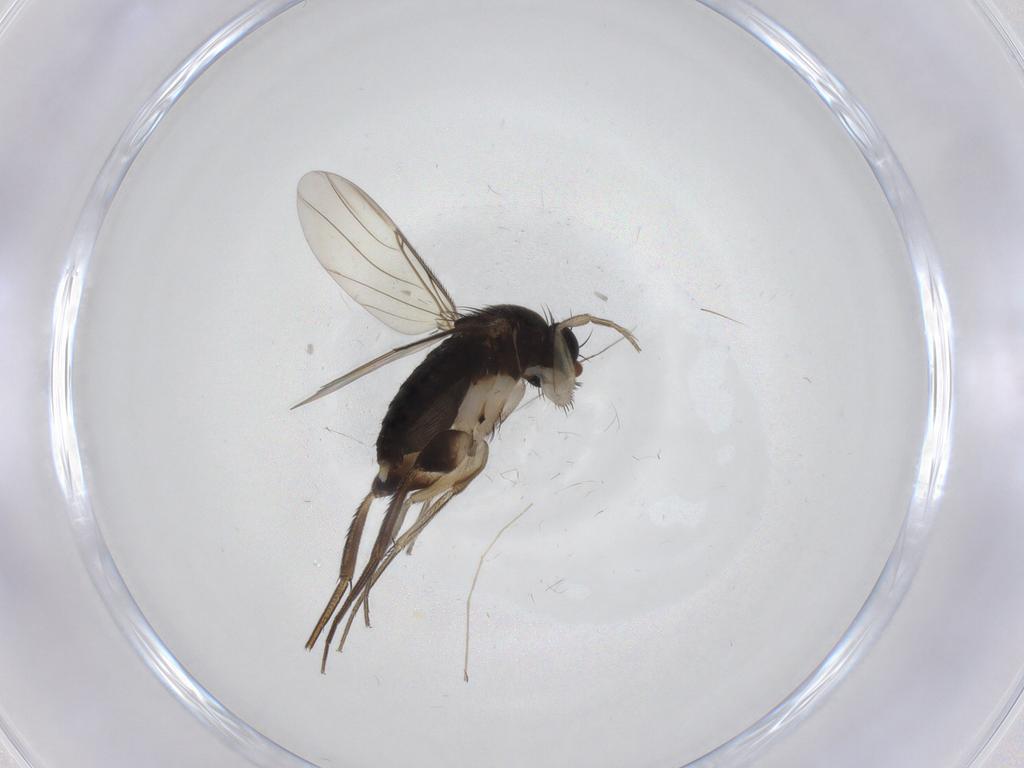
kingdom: Animalia
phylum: Arthropoda
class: Insecta
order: Diptera
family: Phoridae
